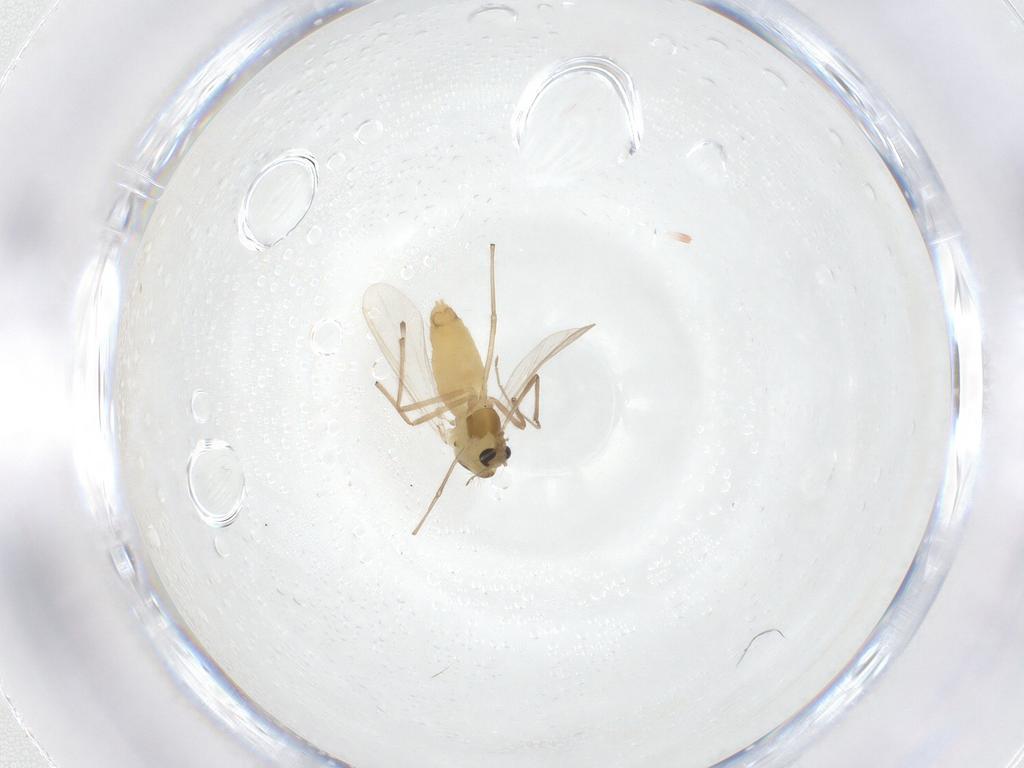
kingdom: Animalia
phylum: Arthropoda
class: Insecta
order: Diptera
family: Chironomidae
